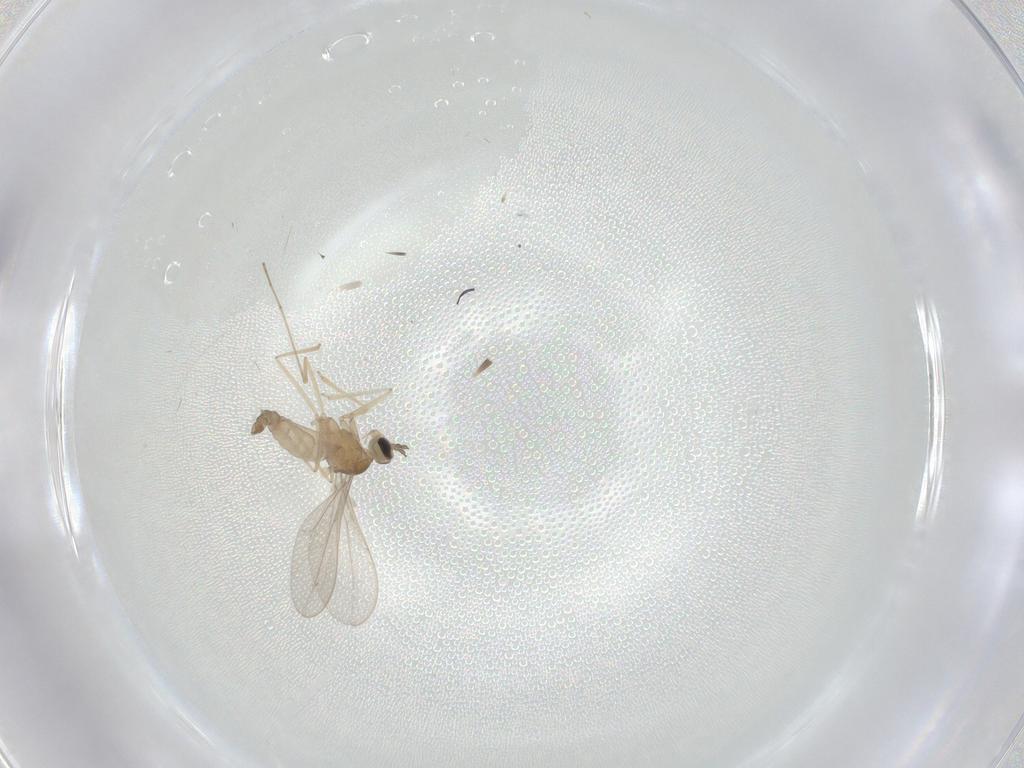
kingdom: Animalia
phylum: Arthropoda
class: Insecta
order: Diptera
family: Cecidomyiidae
